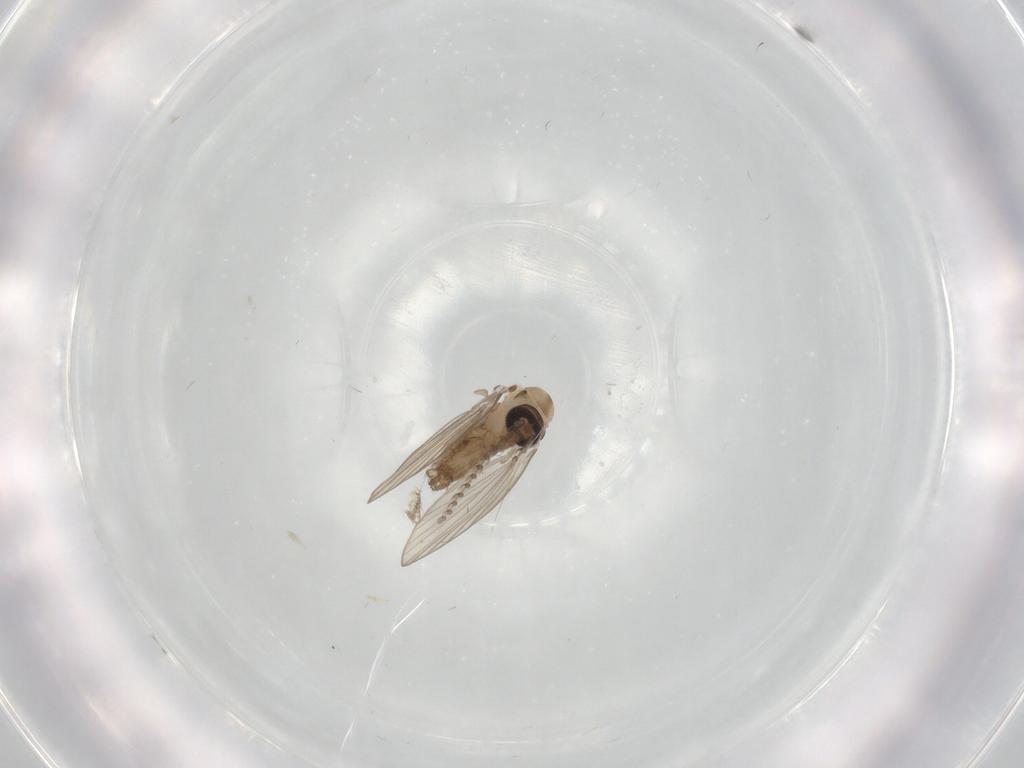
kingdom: Animalia
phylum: Arthropoda
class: Insecta
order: Diptera
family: Psychodidae
